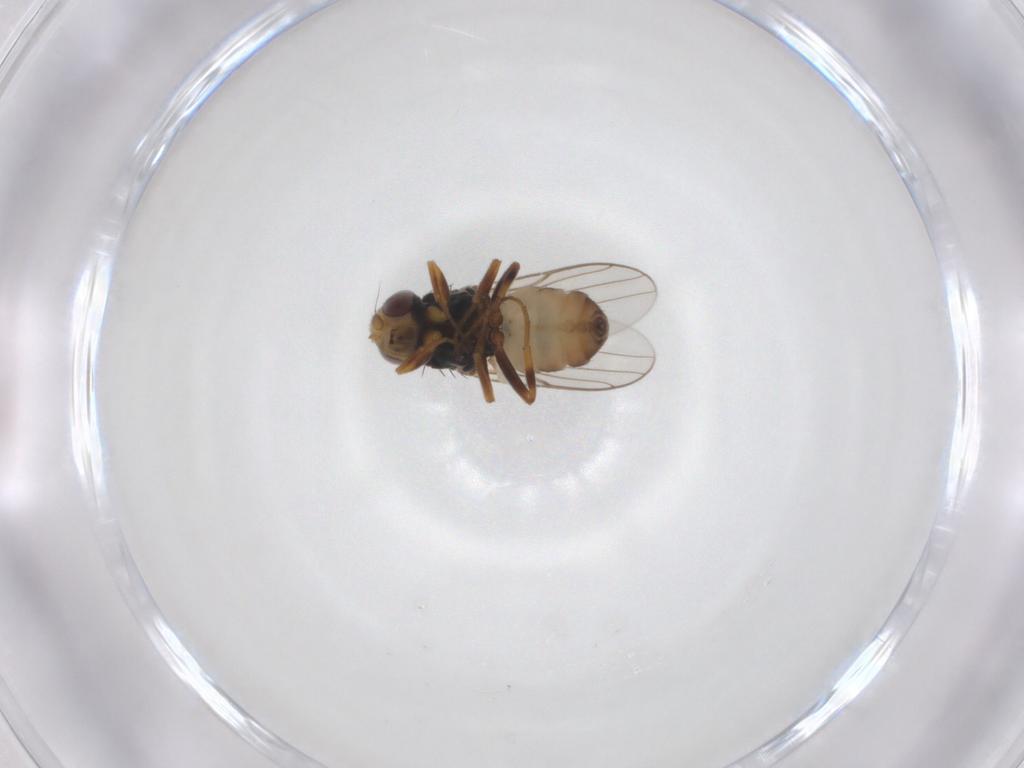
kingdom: Animalia
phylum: Arthropoda
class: Insecta
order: Diptera
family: Chloropidae
